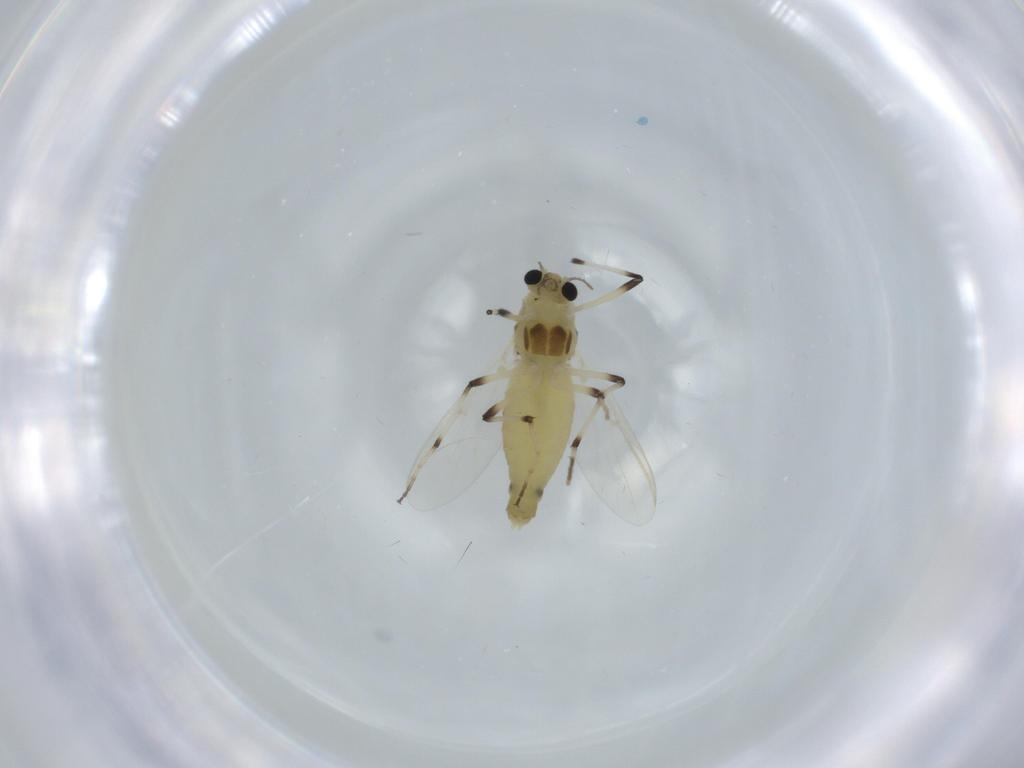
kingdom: Animalia
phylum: Arthropoda
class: Insecta
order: Diptera
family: Chironomidae
